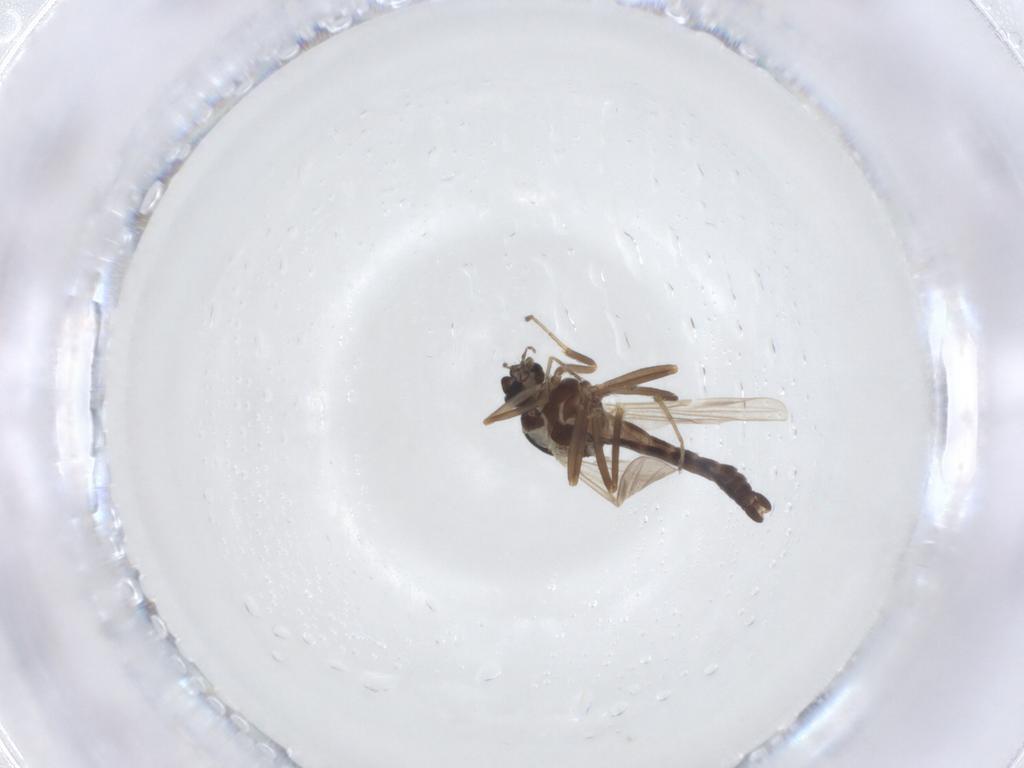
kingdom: Animalia
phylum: Arthropoda
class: Insecta
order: Diptera
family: Ceratopogonidae
